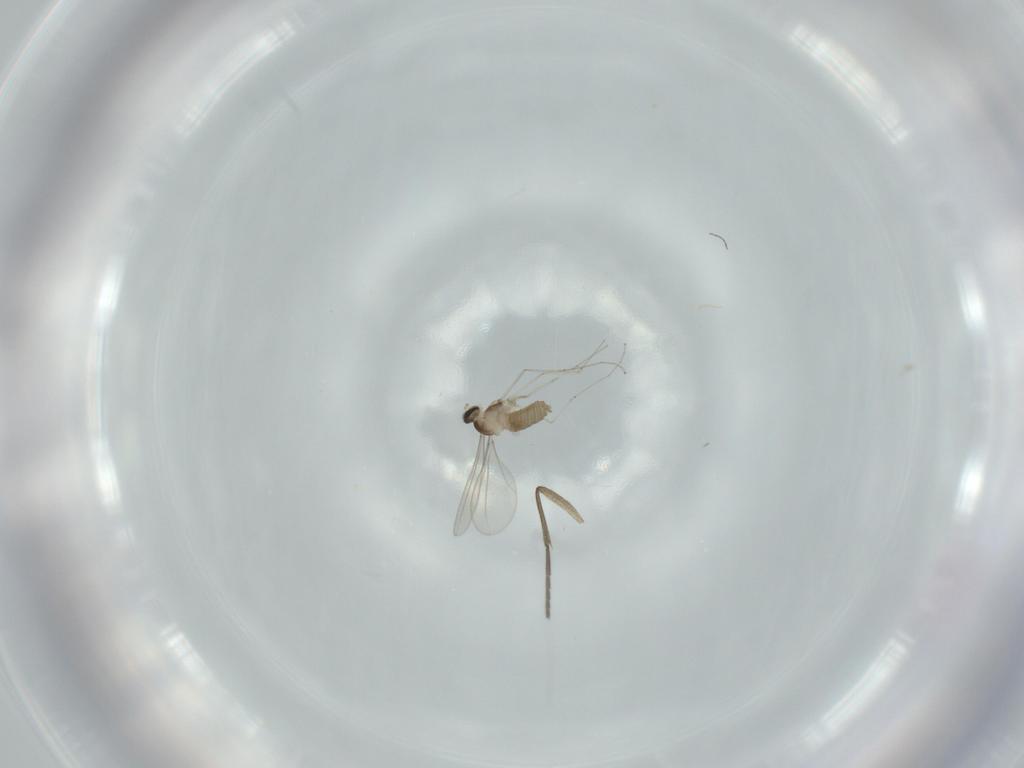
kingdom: Animalia
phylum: Arthropoda
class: Insecta
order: Diptera
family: Cecidomyiidae
